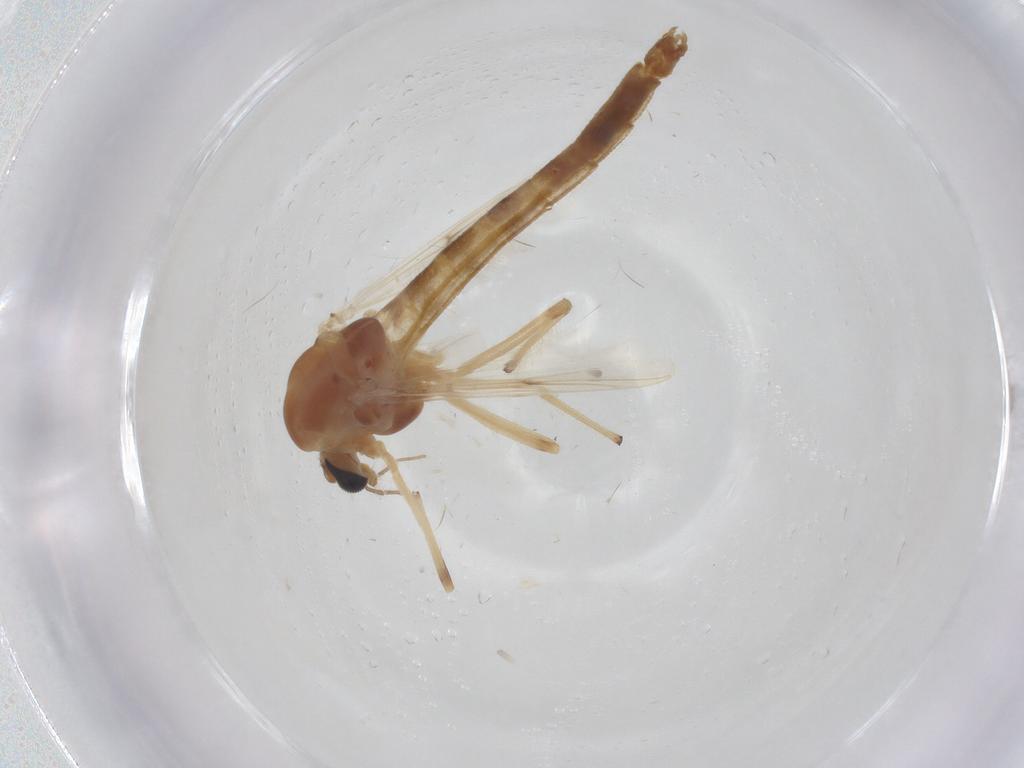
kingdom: Animalia
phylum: Arthropoda
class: Insecta
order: Diptera
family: Chironomidae
